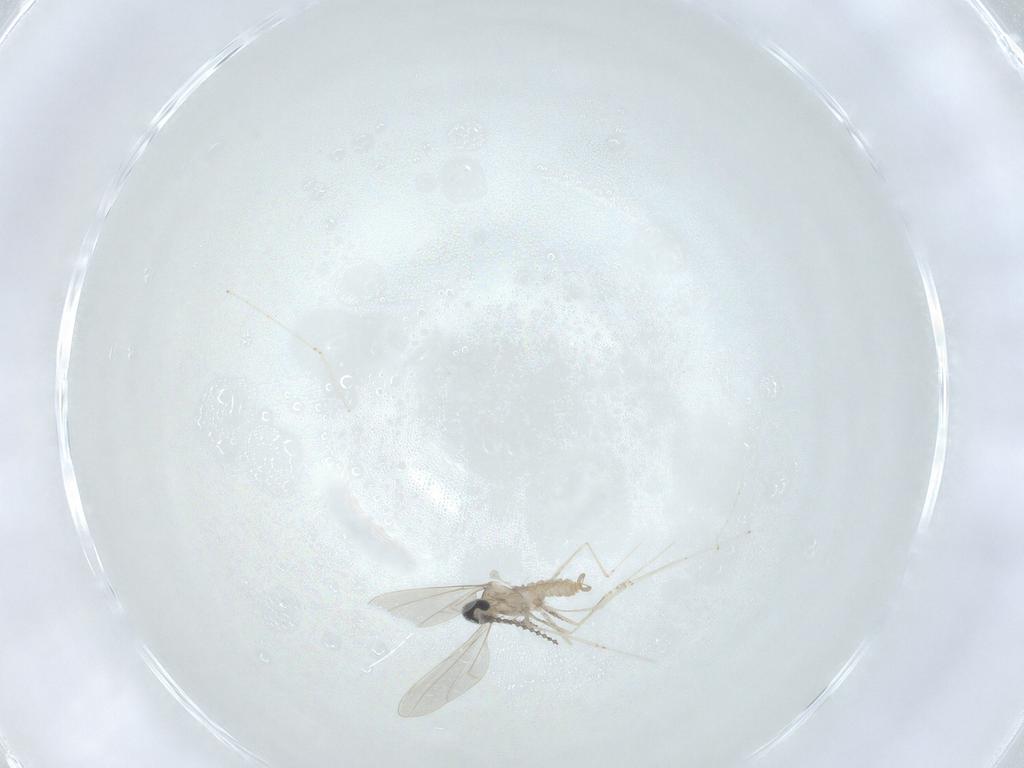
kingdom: Animalia
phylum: Arthropoda
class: Insecta
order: Diptera
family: Cecidomyiidae
